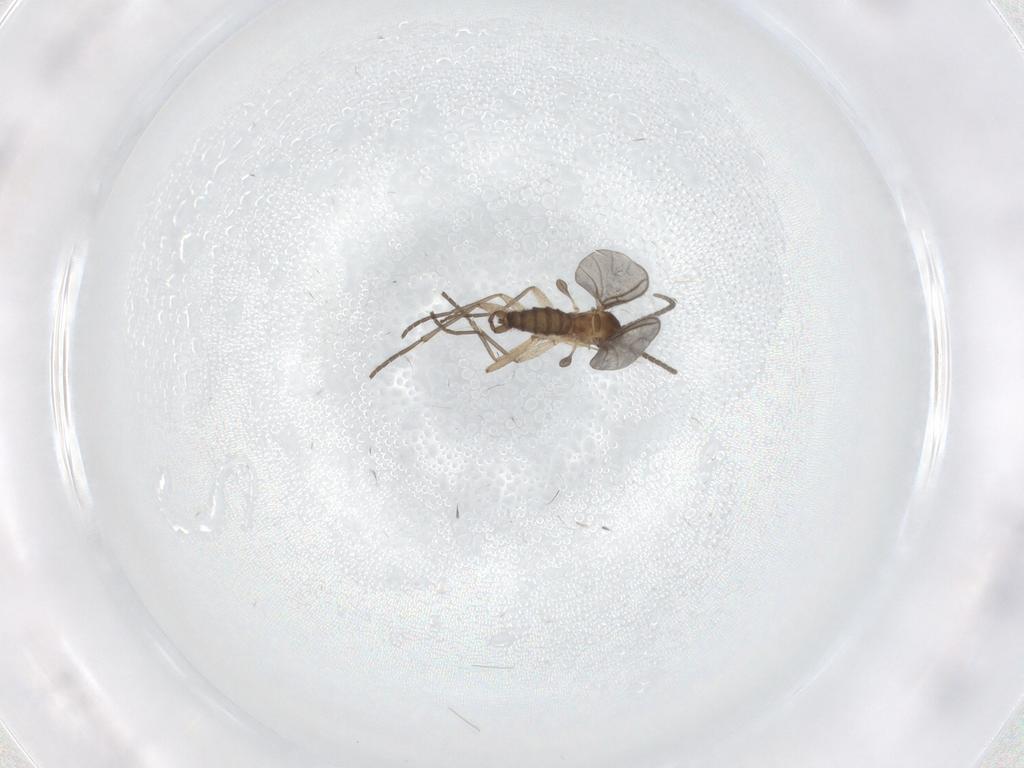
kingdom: Animalia
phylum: Arthropoda
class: Insecta
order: Diptera
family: Sciaridae
